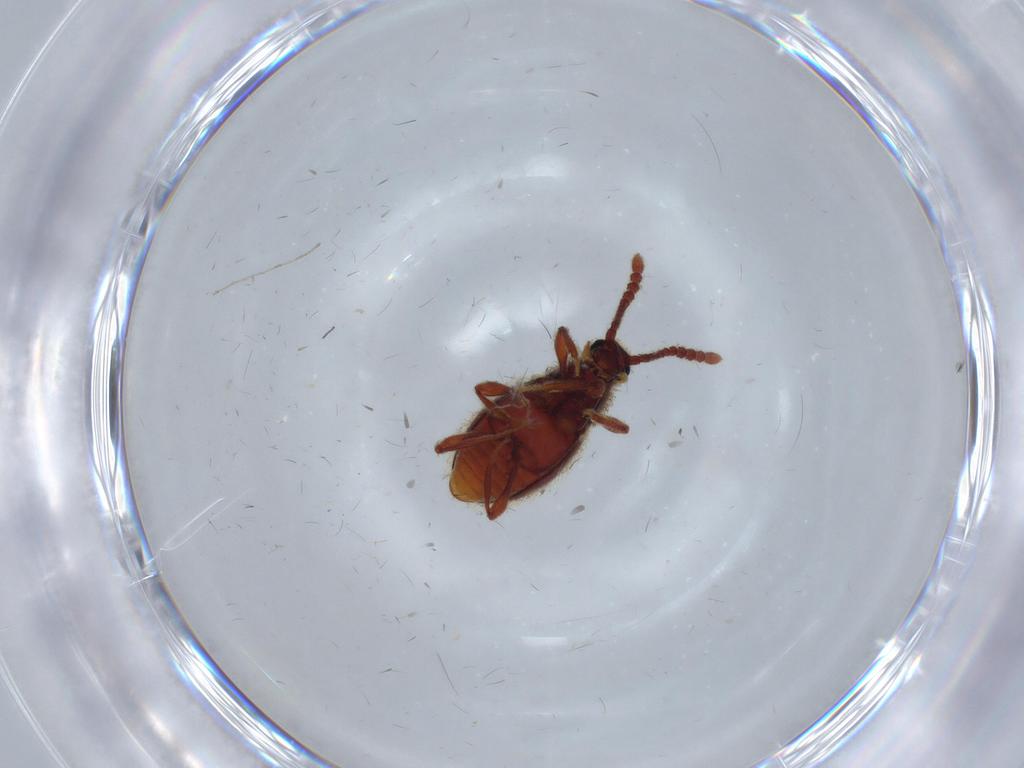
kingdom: Animalia
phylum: Arthropoda
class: Insecta
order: Coleoptera
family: Staphylinidae
